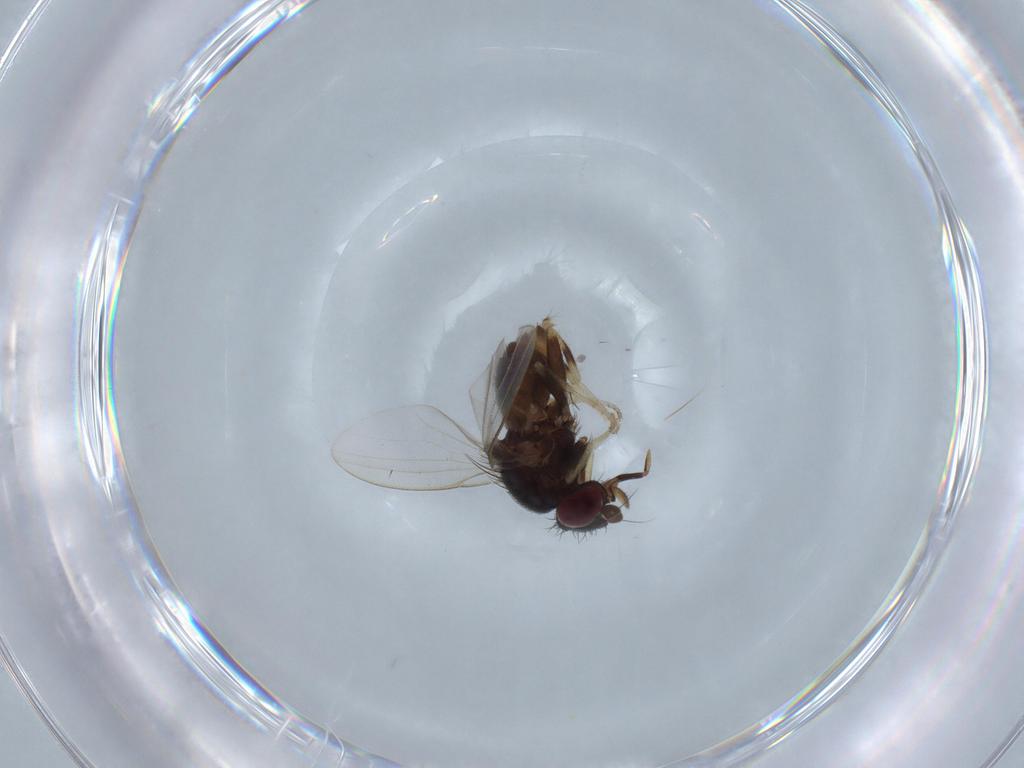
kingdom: Animalia
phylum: Arthropoda
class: Insecta
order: Diptera
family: Milichiidae
